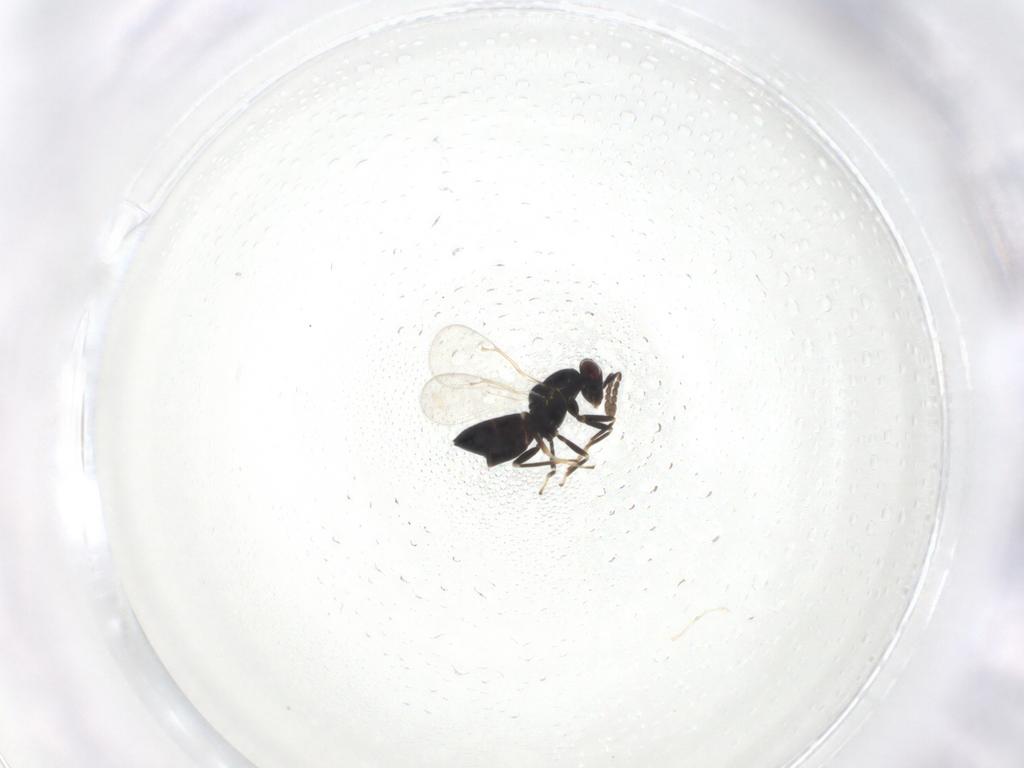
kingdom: Animalia
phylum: Arthropoda
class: Insecta
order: Hymenoptera
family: Eulophidae
